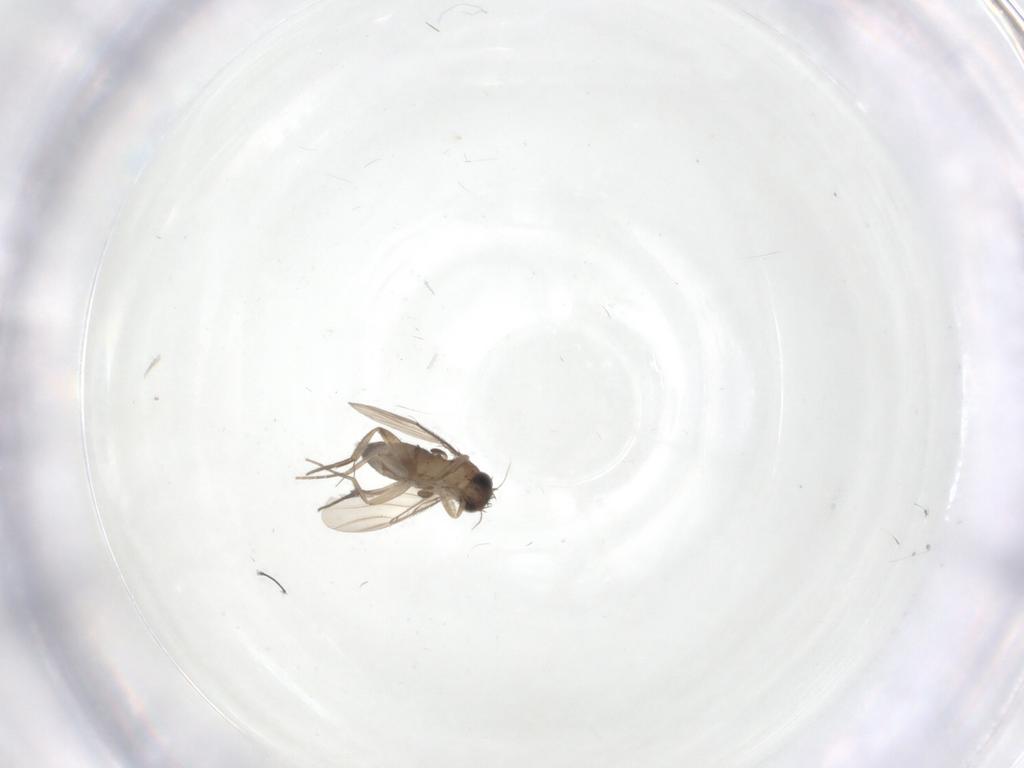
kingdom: Animalia
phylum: Arthropoda
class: Insecta
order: Diptera
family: Phoridae
